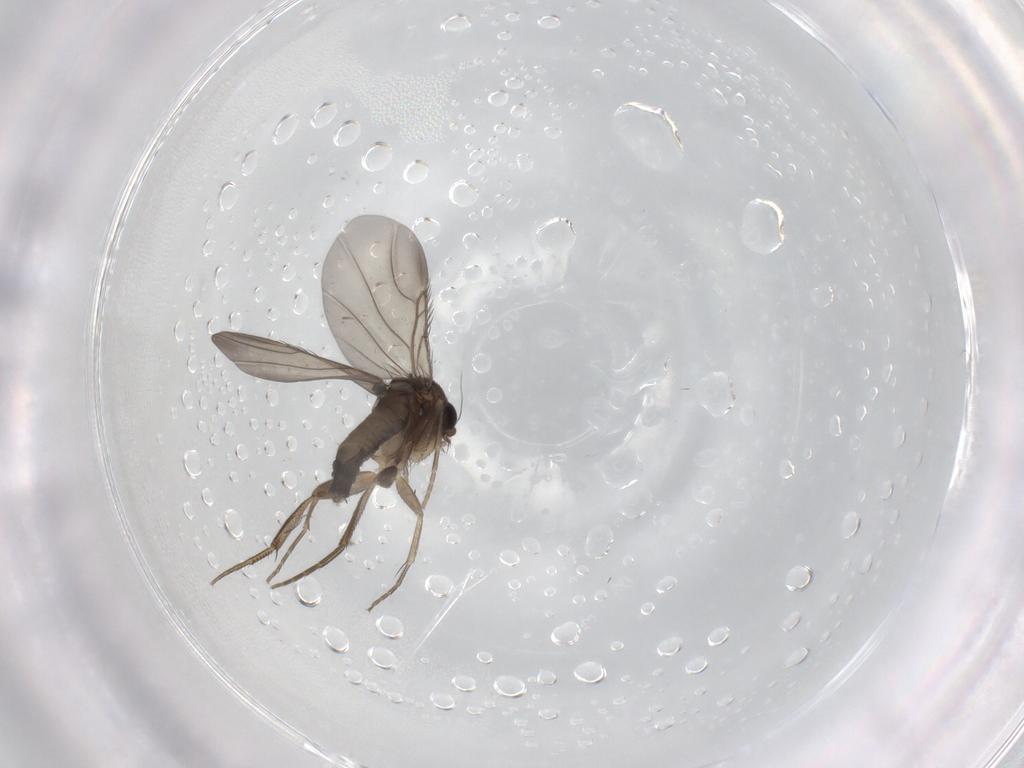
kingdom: Animalia
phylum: Arthropoda
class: Insecta
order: Diptera
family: Phoridae
